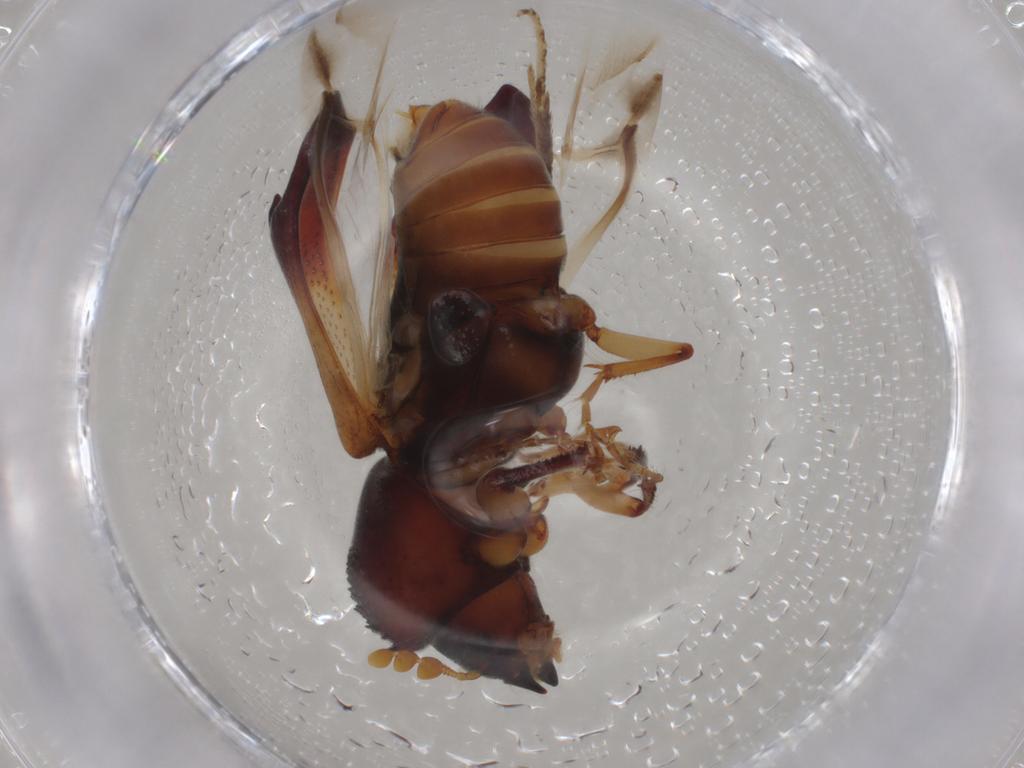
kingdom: Animalia
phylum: Arthropoda
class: Insecta
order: Coleoptera
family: Bostrichidae
